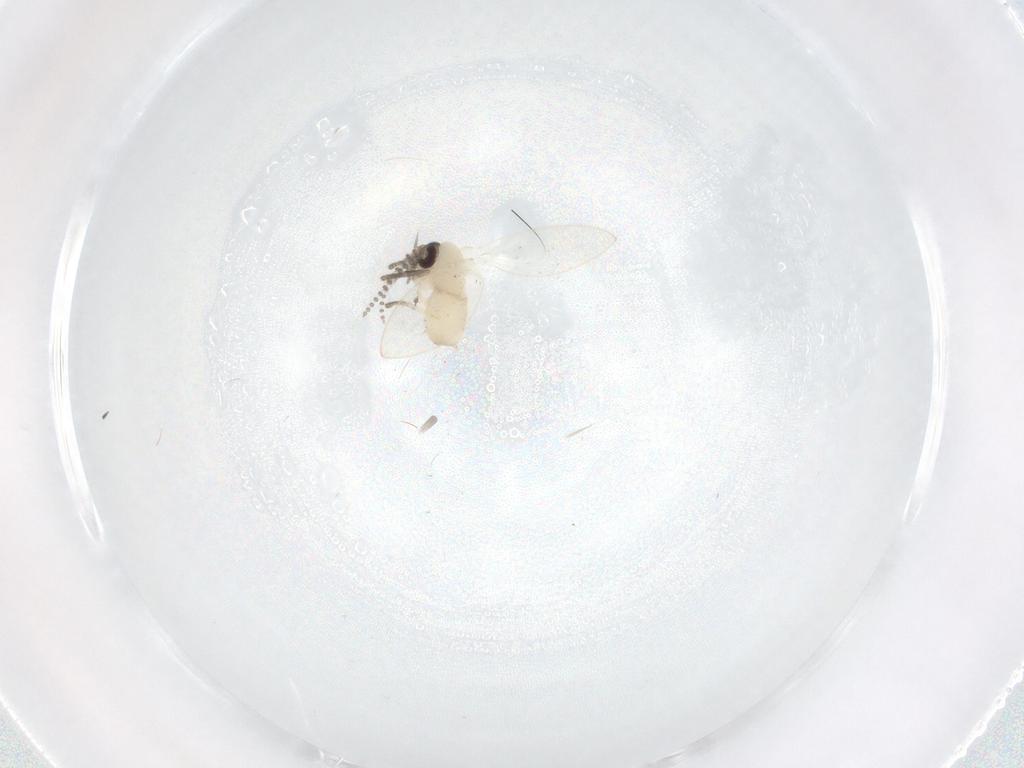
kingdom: Animalia
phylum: Arthropoda
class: Insecta
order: Diptera
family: Psychodidae
